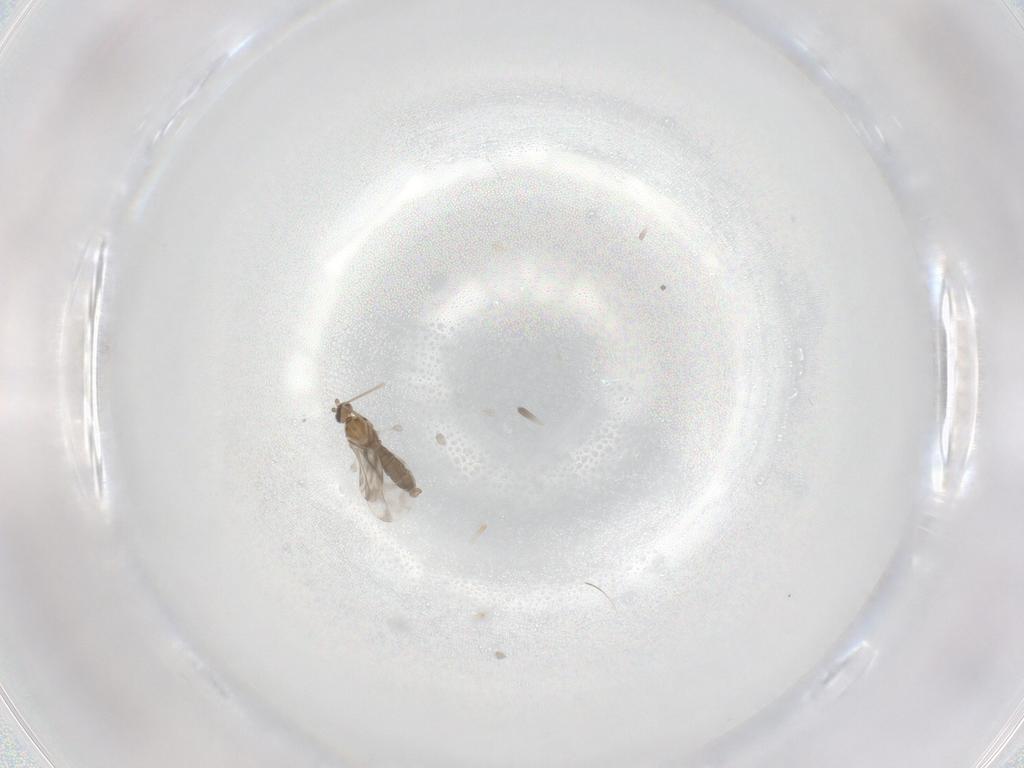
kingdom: Animalia
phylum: Arthropoda
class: Insecta
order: Diptera
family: Cecidomyiidae
